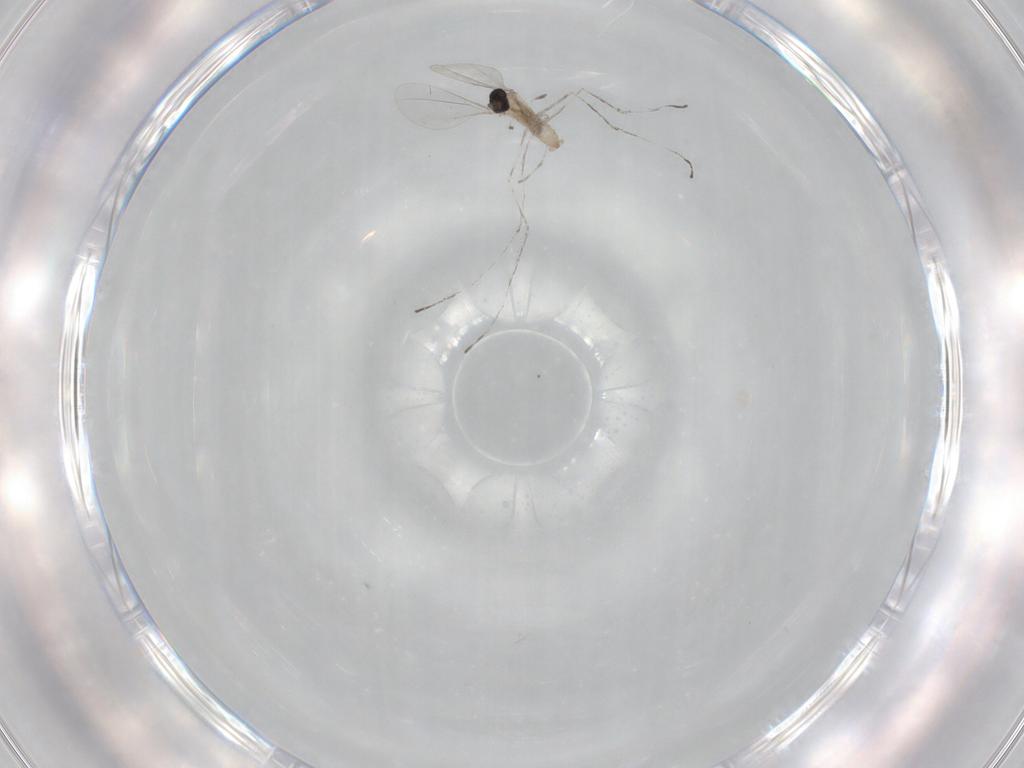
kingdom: Animalia
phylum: Arthropoda
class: Insecta
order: Diptera
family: Cecidomyiidae
